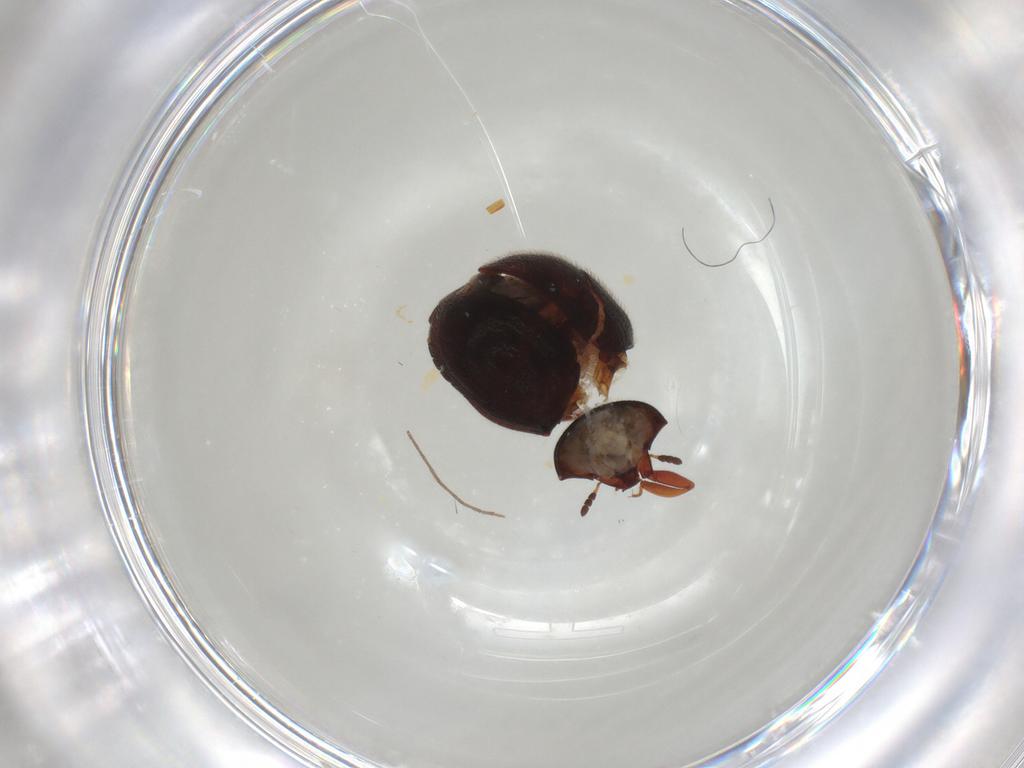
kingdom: Animalia
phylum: Arthropoda
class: Insecta
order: Coleoptera
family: Sphindidae
